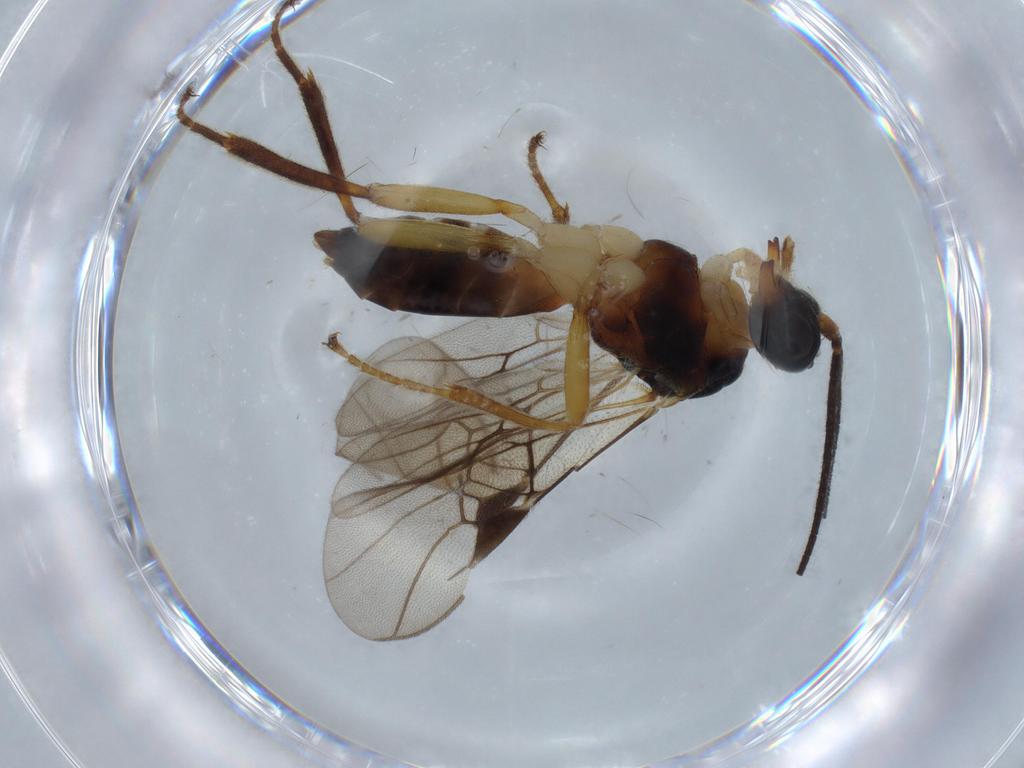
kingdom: Animalia
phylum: Arthropoda
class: Insecta
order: Hymenoptera
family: Braconidae
